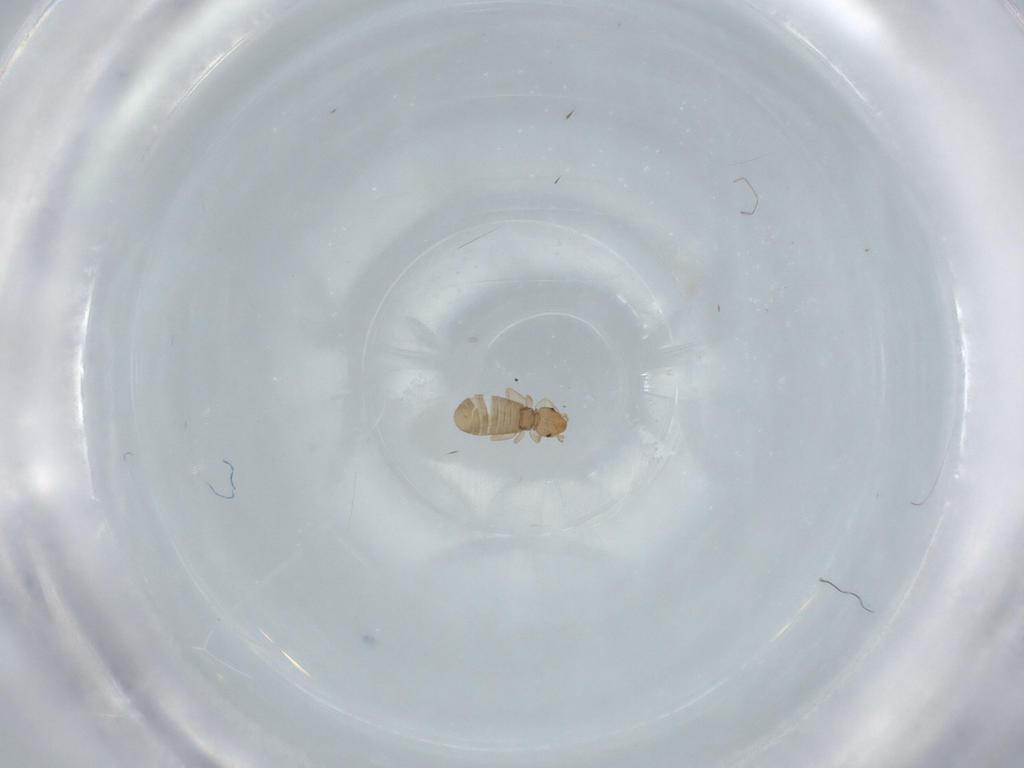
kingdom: Animalia
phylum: Arthropoda
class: Insecta
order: Psocodea
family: Liposcelididae
